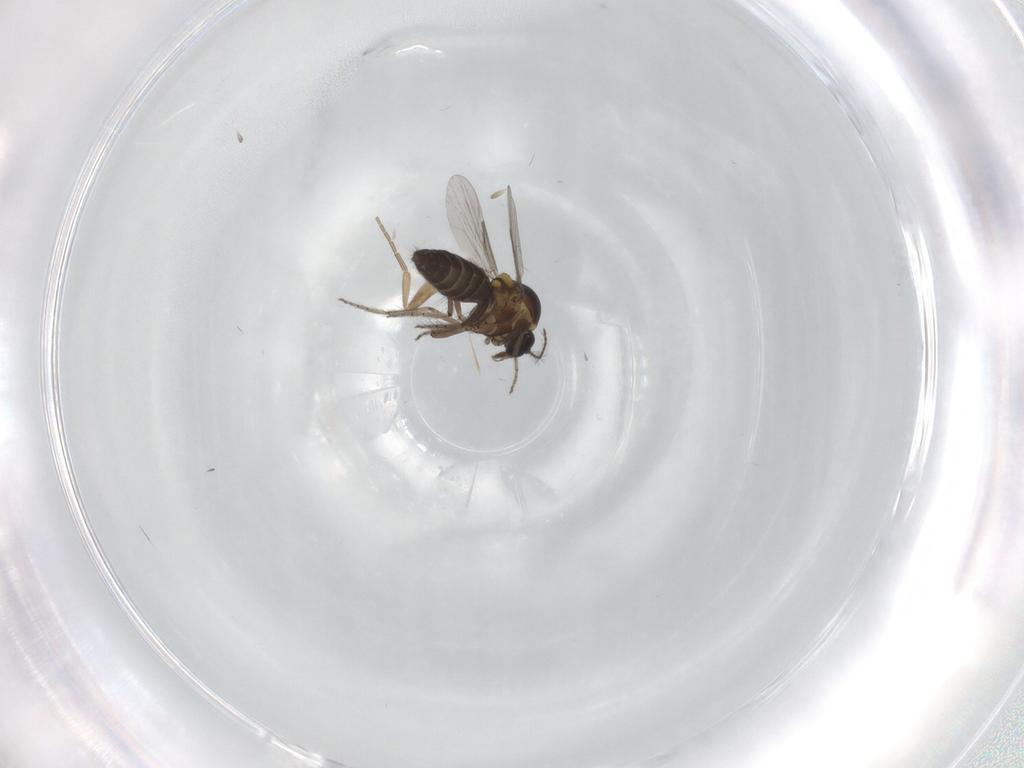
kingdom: Animalia
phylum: Arthropoda
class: Insecta
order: Diptera
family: Ceratopogonidae
